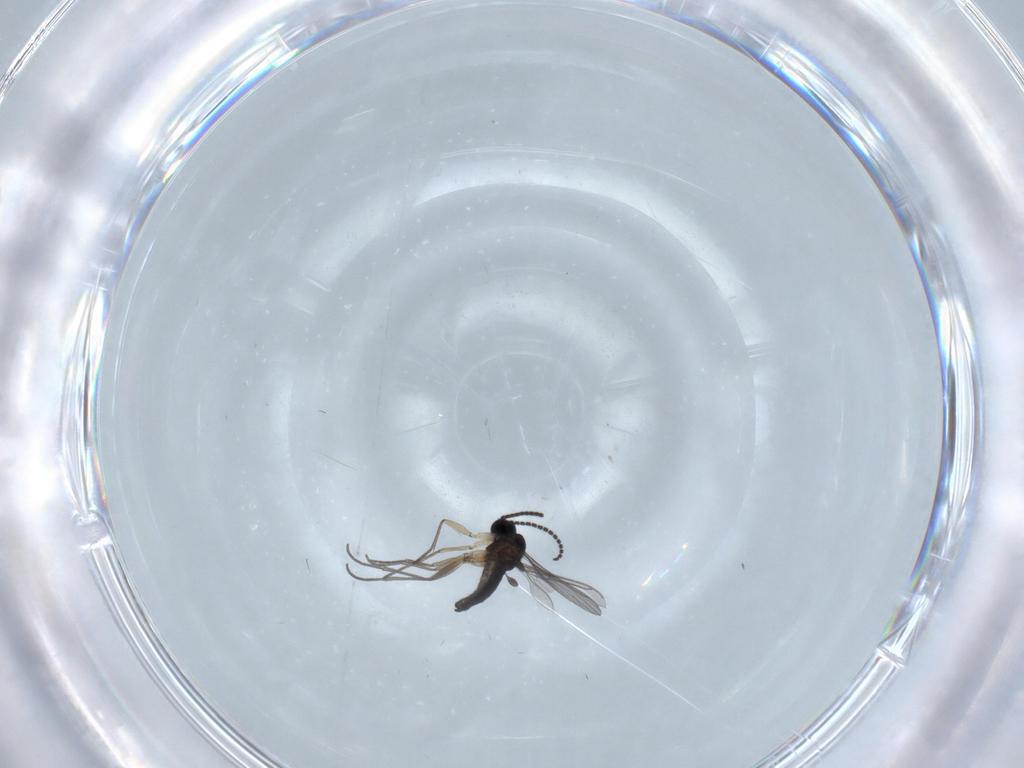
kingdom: Animalia
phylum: Arthropoda
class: Insecta
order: Diptera
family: Sciaridae
